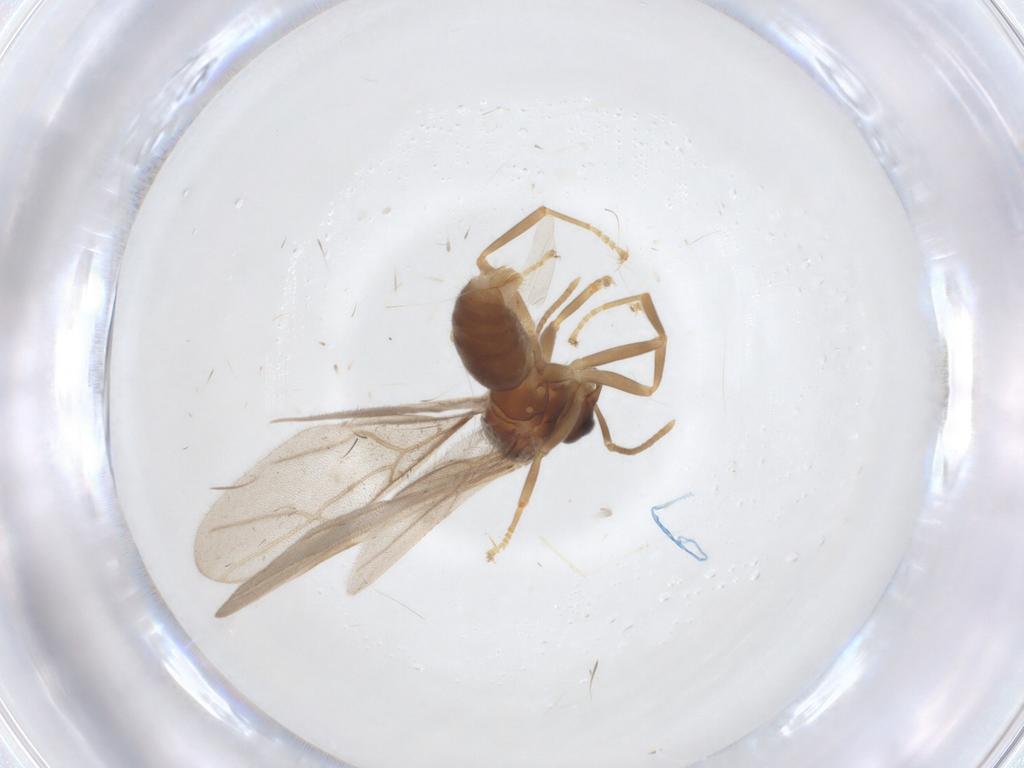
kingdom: Animalia
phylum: Arthropoda
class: Insecta
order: Hymenoptera
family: Formicidae
